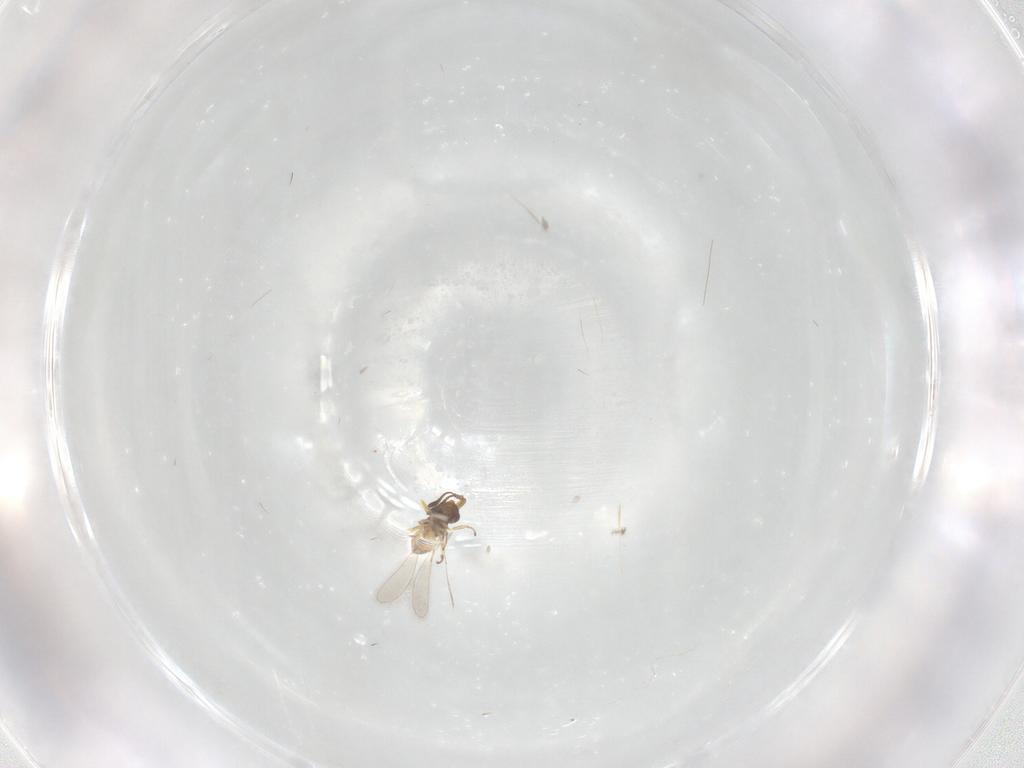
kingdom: Animalia
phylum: Arthropoda
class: Insecta
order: Hymenoptera
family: Mymaridae
